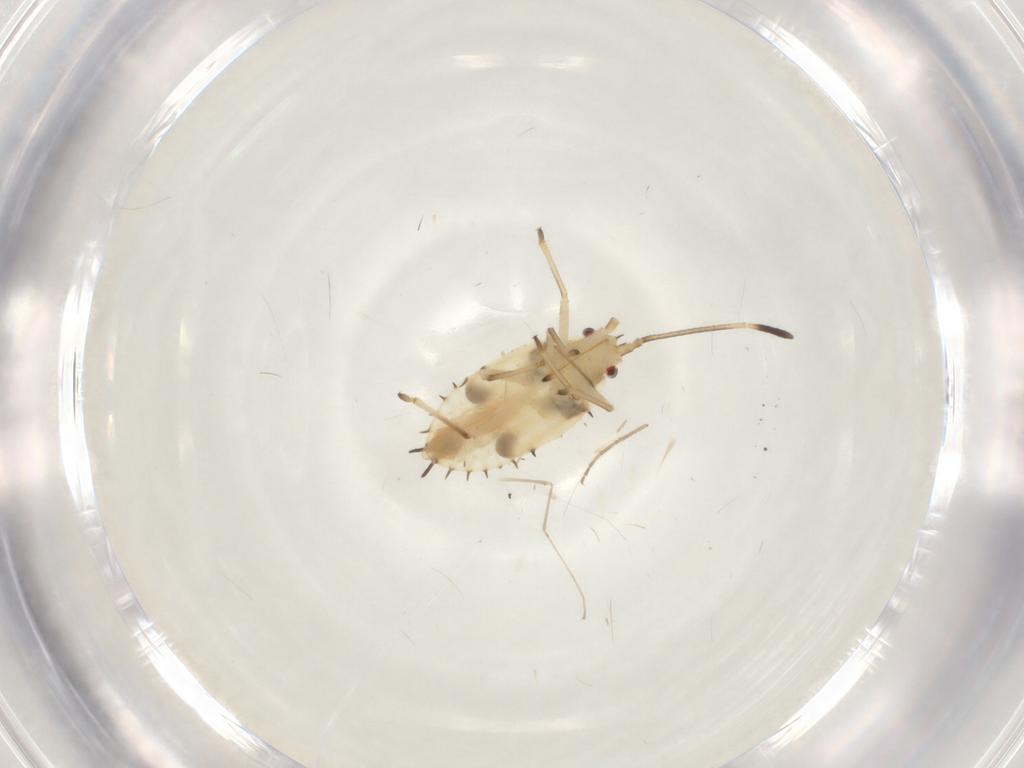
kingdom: Animalia
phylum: Arthropoda
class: Insecta
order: Hemiptera
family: Tingidae
